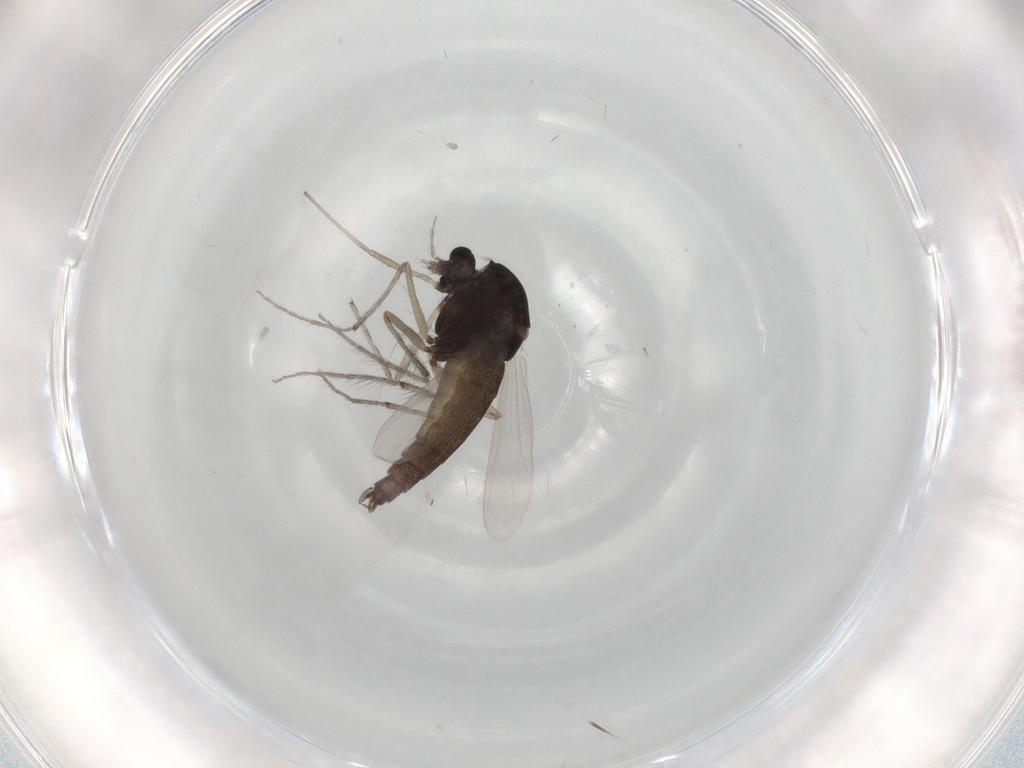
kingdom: Animalia
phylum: Arthropoda
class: Insecta
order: Diptera
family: Chironomidae
